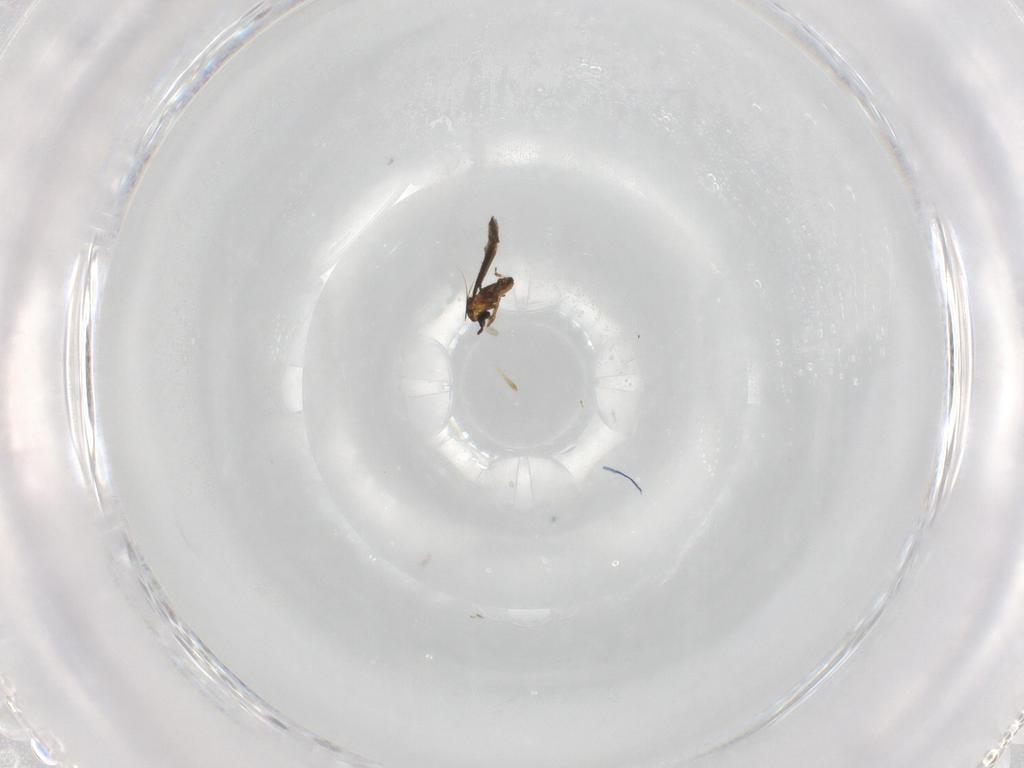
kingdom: Animalia
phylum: Arthropoda
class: Insecta
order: Diptera
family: Cecidomyiidae
